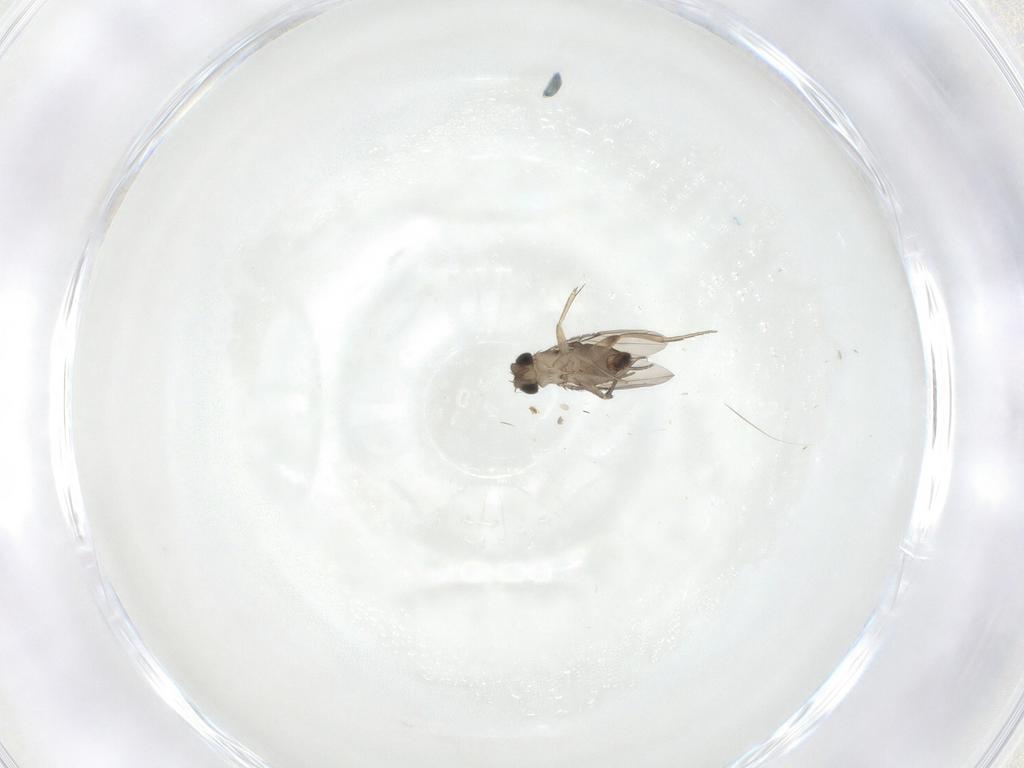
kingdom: Animalia
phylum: Arthropoda
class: Insecta
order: Diptera
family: Phoridae
